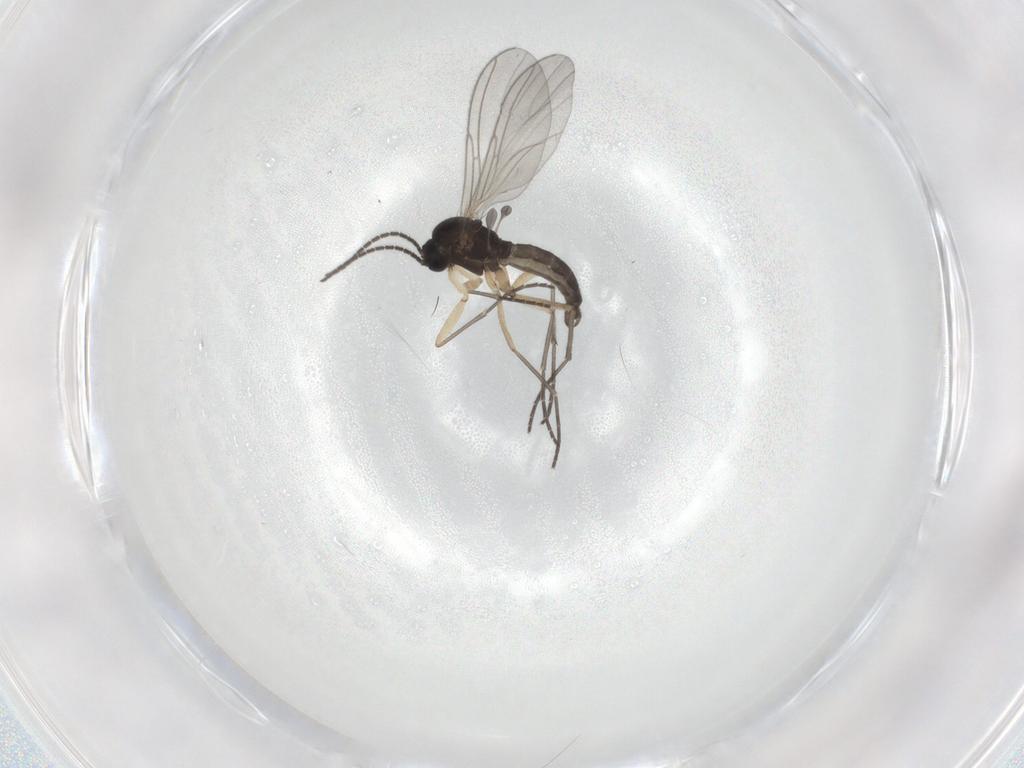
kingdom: Animalia
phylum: Arthropoda
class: Insecta
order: Diptera
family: Sciaridae
